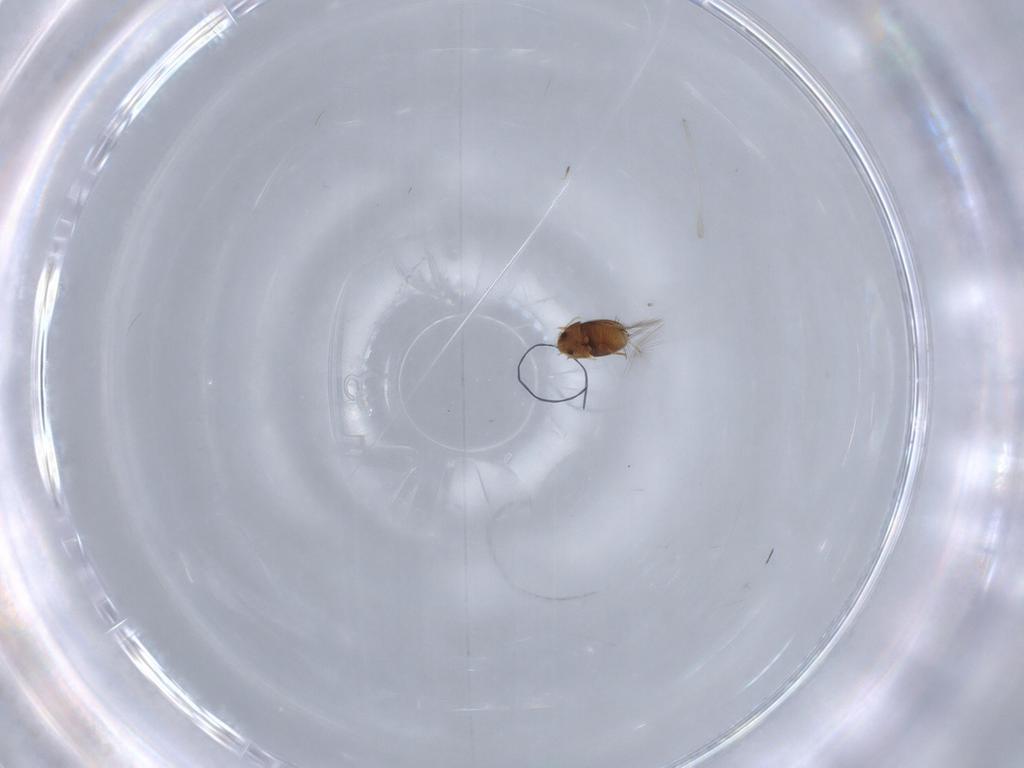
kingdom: Animalia
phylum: Arthropoda
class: Insecta
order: Coleoptera
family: Ptiliidae
